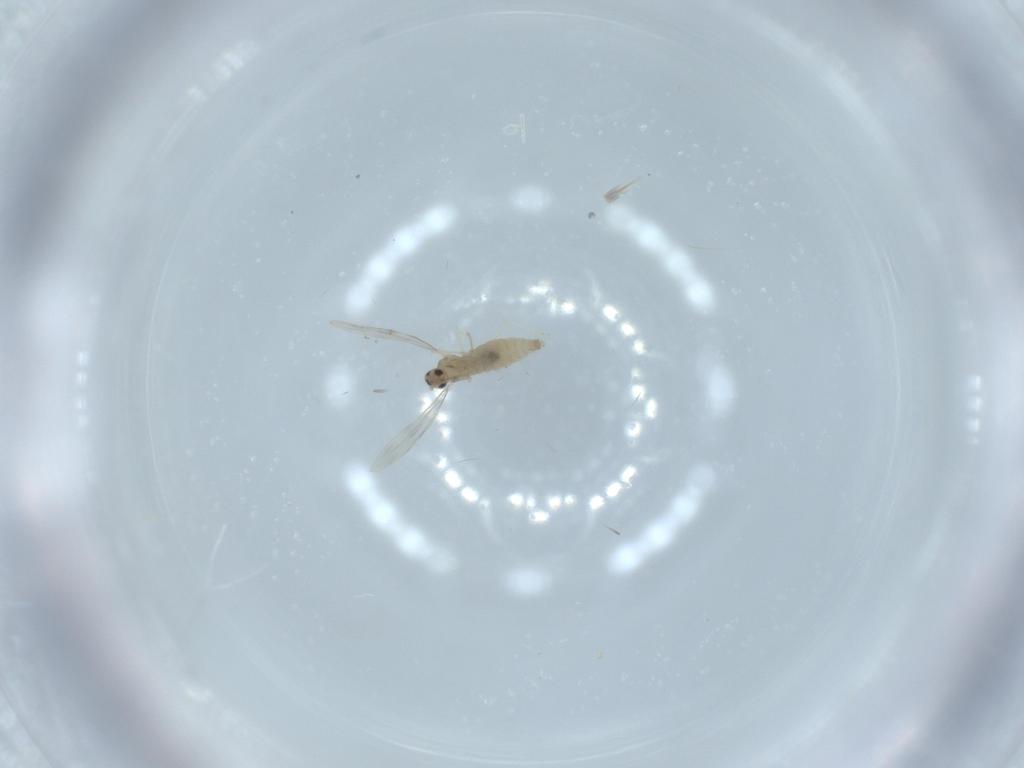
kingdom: Animalia
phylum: Arthropoda
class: Insecta
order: Diptera
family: Cecidomyiidae
